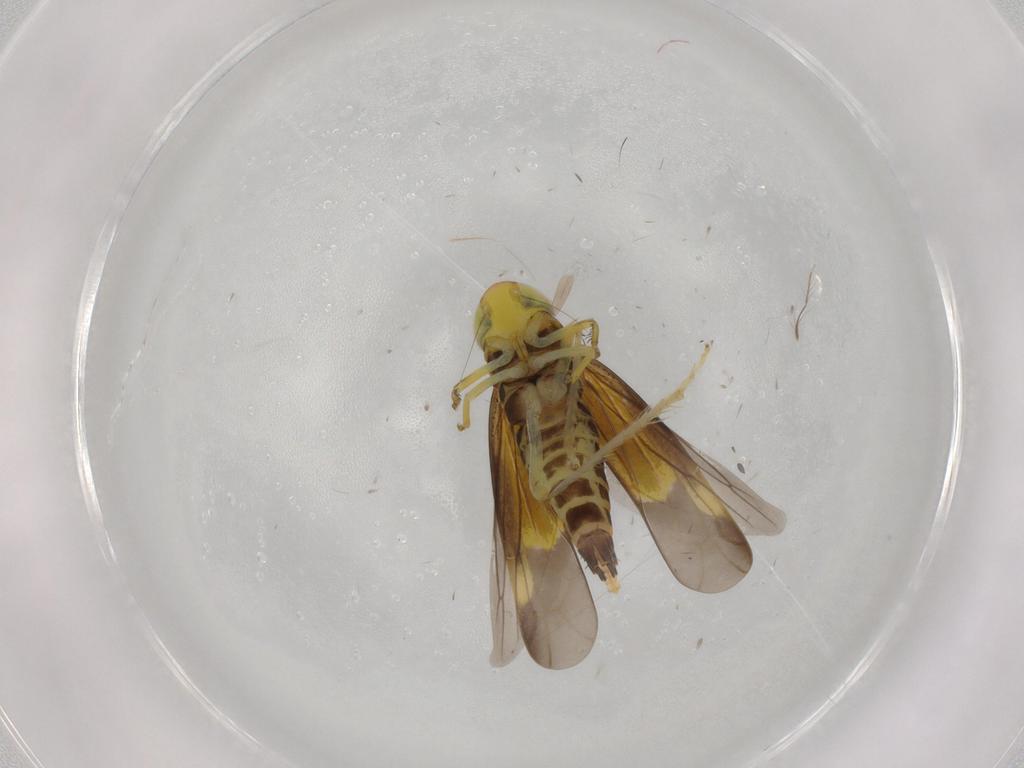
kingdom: Animalia
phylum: Arthropoda
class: Insecta
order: Hemiptera
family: Cicadellidae
